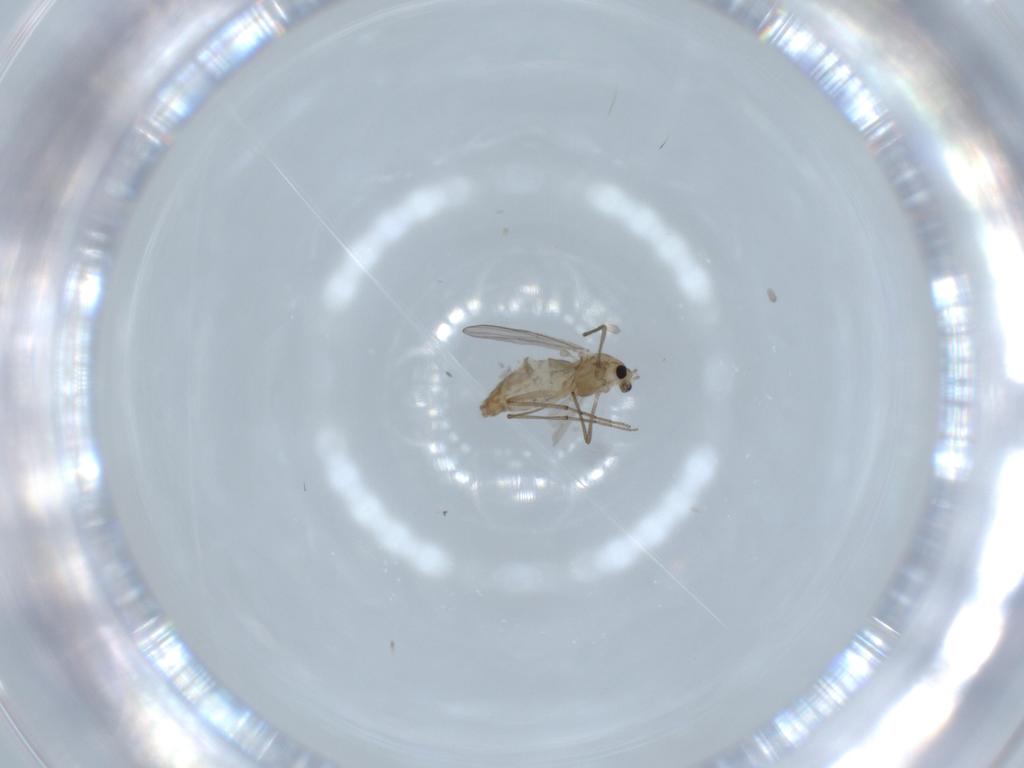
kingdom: Animalia
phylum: Arthropoda
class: Insecta
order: Diptera
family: Chironomidae
